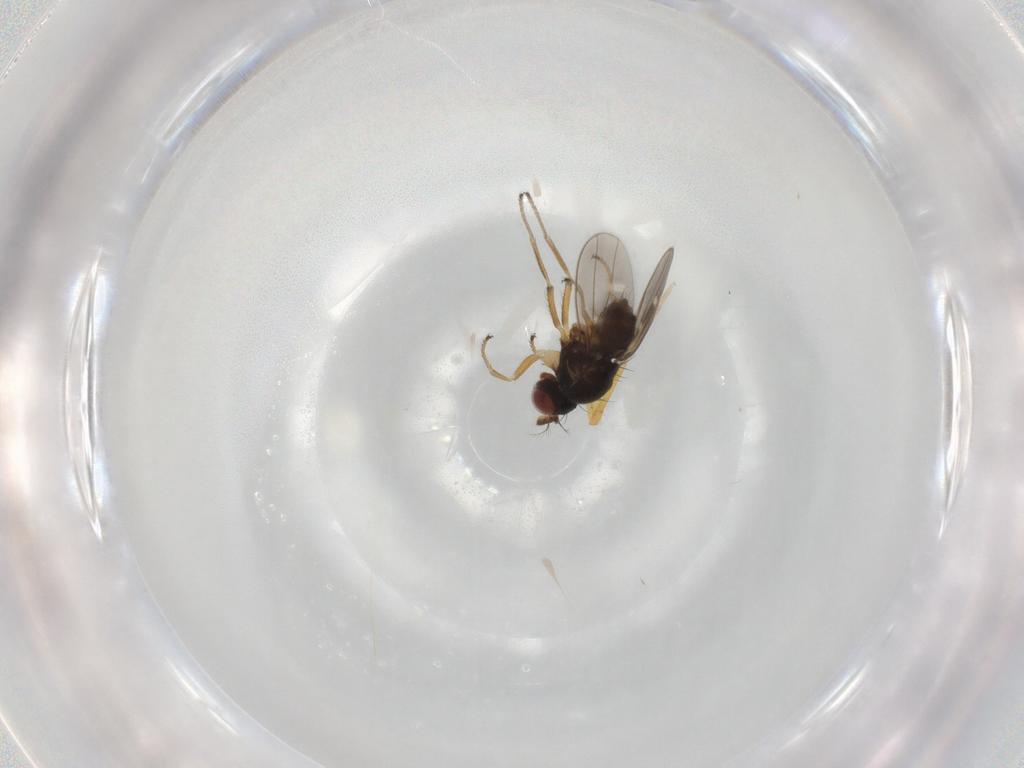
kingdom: Animalia
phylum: Arthropoda
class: Insecta
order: Diptera
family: Ephydridae
